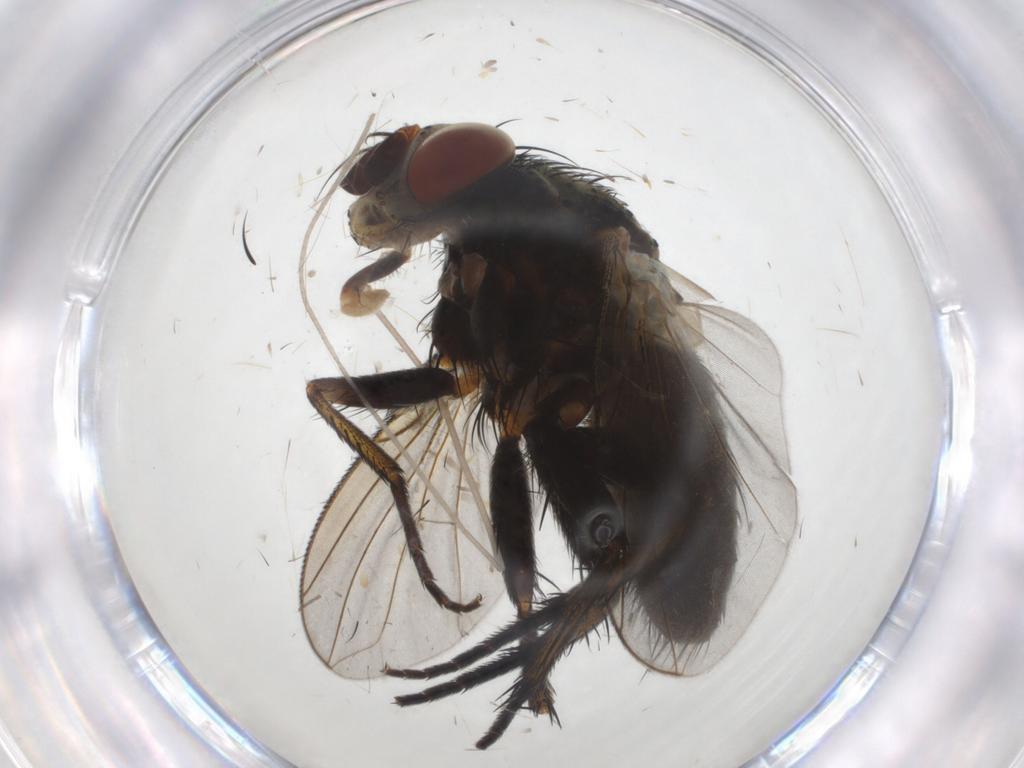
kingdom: Animalia
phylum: Arthropoda
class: Insecta
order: Diptera
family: Tachinidae
